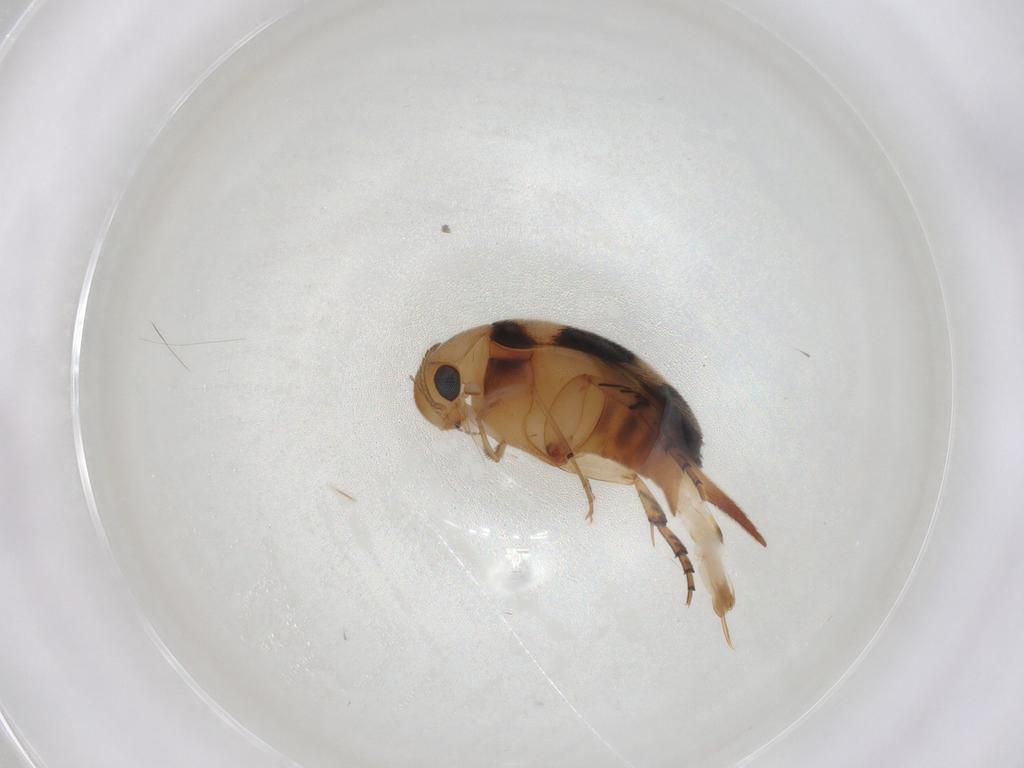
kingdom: Animalia
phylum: Arthropoda
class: Insecta
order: Coleoptera
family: Mordellidae
